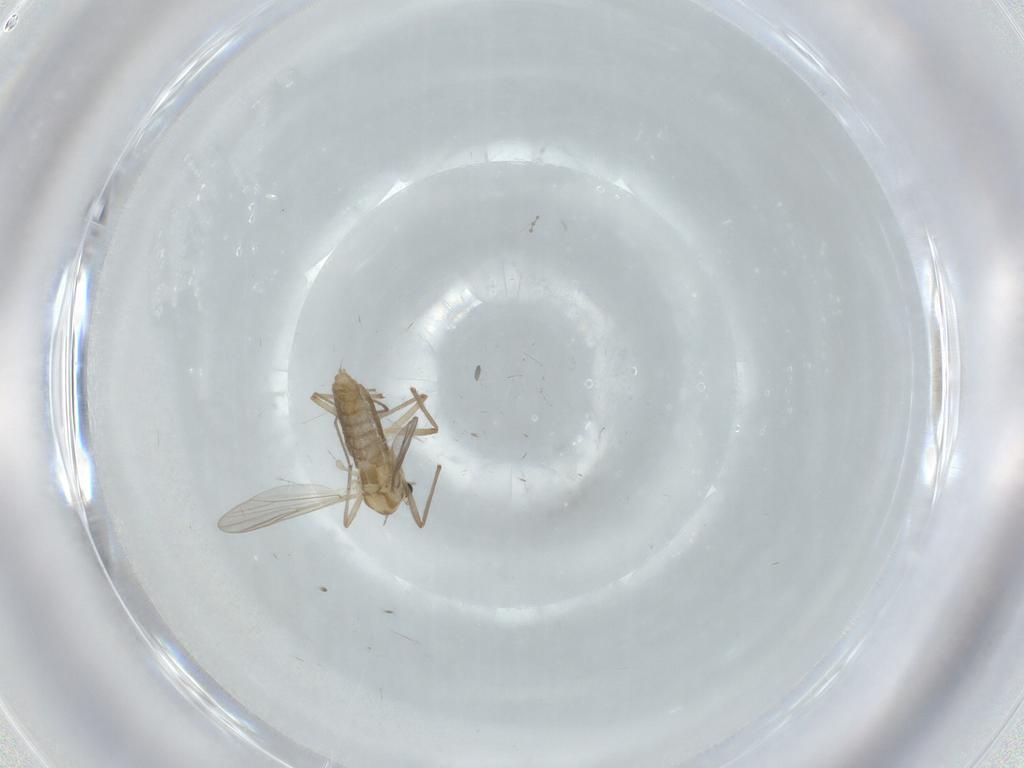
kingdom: Animalia
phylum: Arthropoda
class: Insecta
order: Diptera
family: Chironomidae
